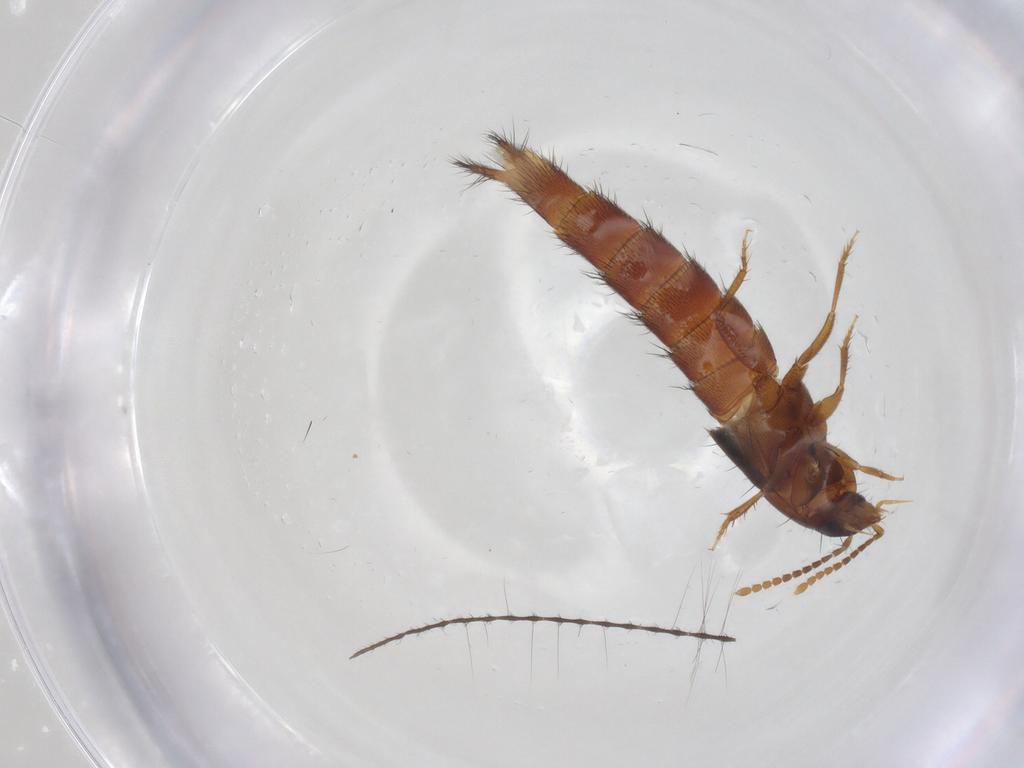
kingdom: Animalia
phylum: Arthropoda
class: Insecta
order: Coleoptera
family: Staphylinidae
